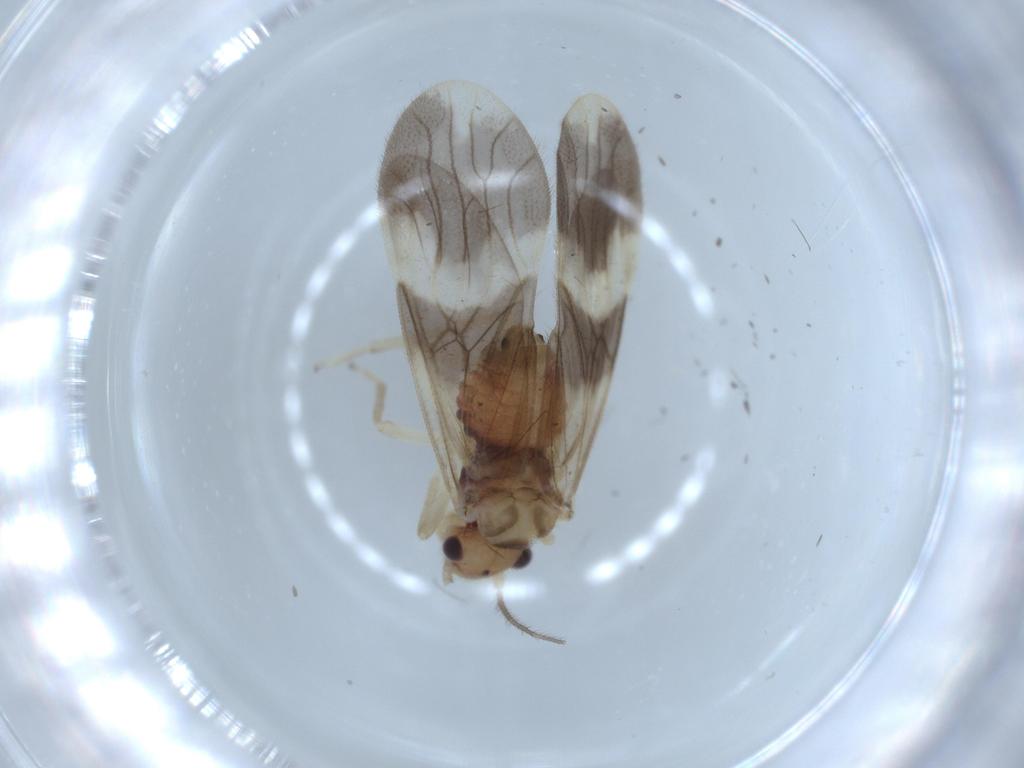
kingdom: Animalia
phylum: Arthropoda
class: Insecta
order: Psocodea
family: Amphipsocidae
